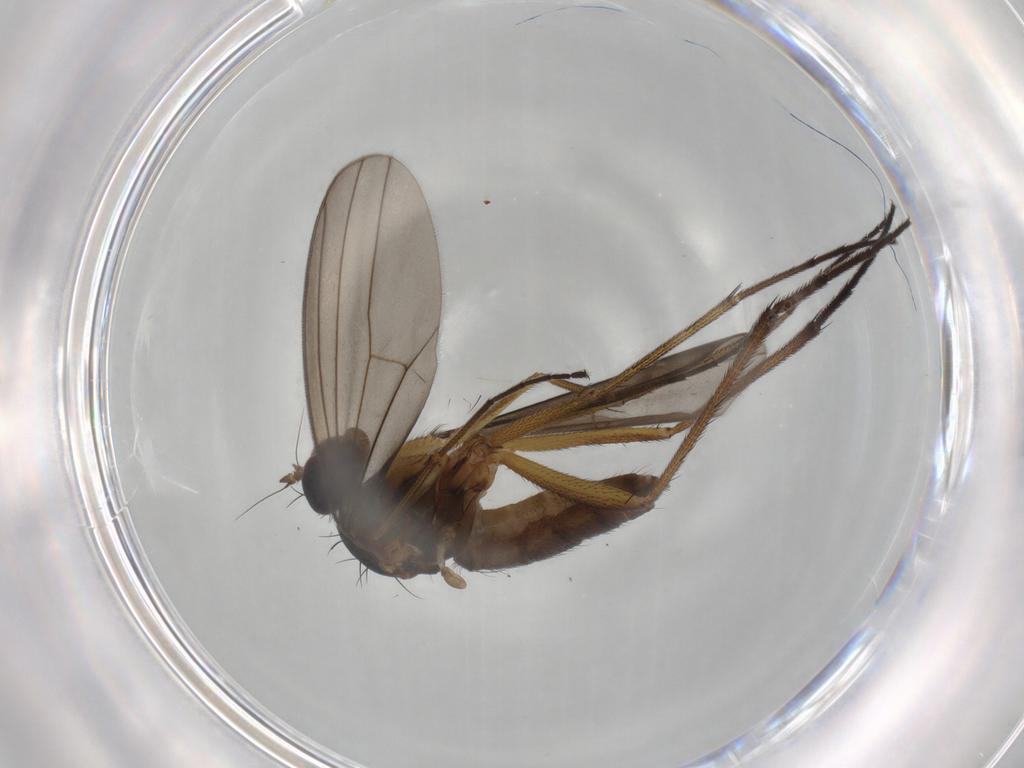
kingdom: Animalia
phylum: Arthropoda
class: Insecta
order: Diptera
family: Dolichopodidae
